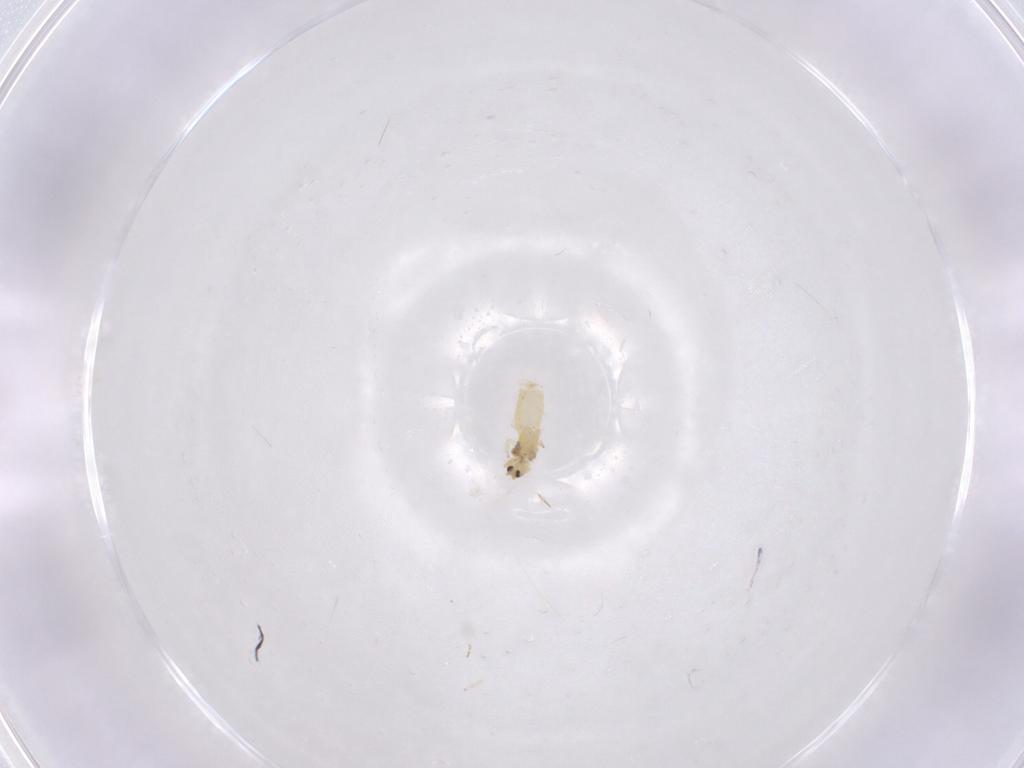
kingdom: Animalia
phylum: Arthropoda
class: Insecta
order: Thysanoptera
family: Thripidae
